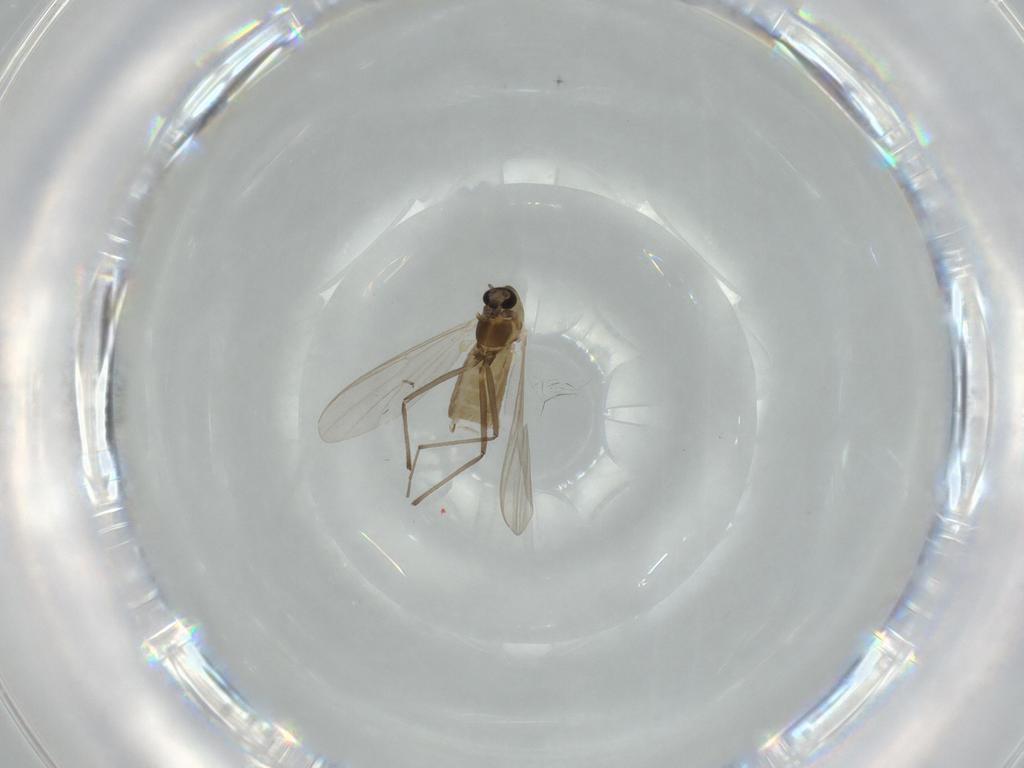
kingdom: Animalia
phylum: Arthropoda
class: Insecta
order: Diptera
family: Chironomidae
